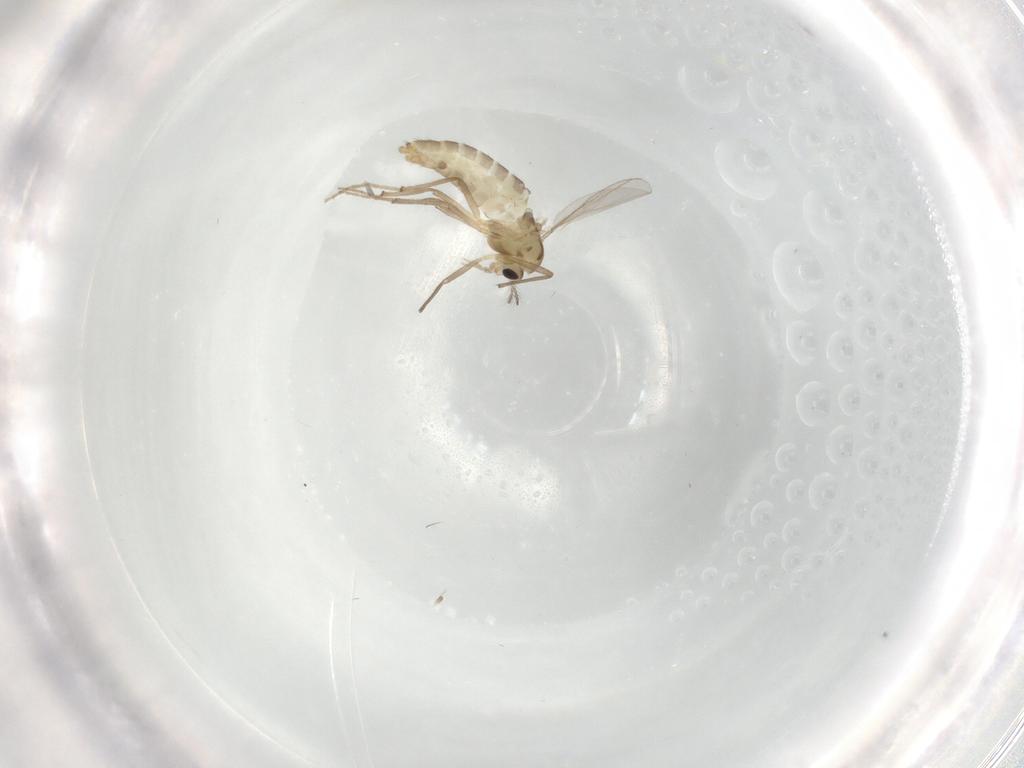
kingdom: Animalia
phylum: Arthropoda
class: Insecta
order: Diptera
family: Chironomidae
